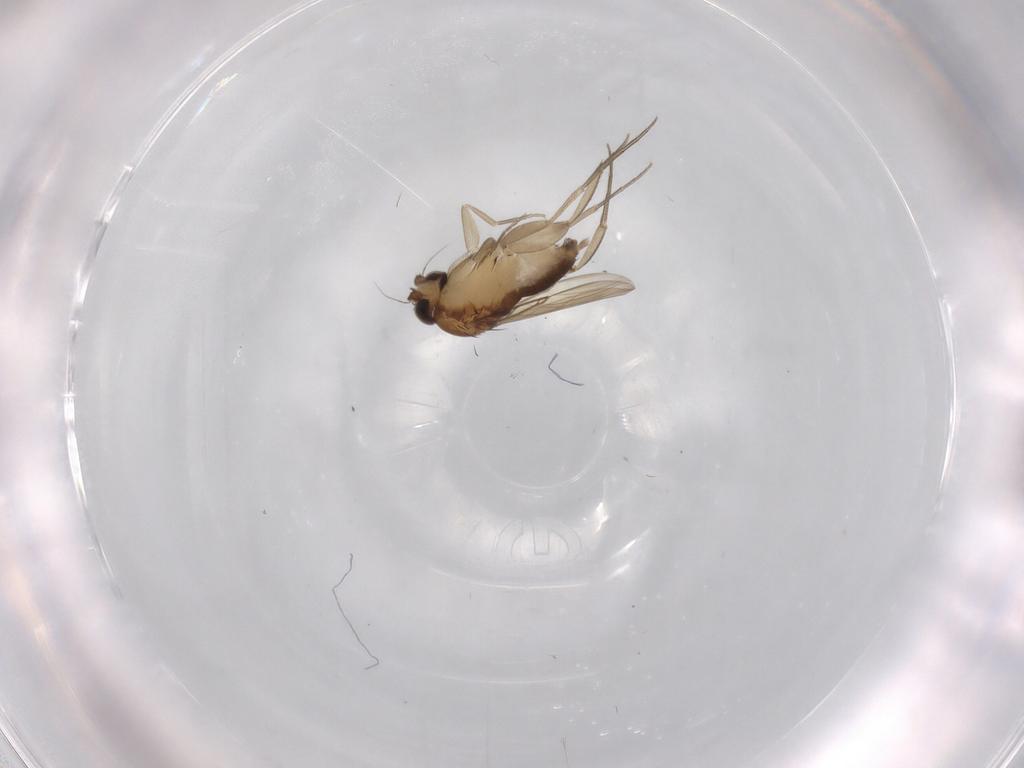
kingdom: Animalia
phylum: Arthropoda
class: Insecta
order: Diptera
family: Phoridae
